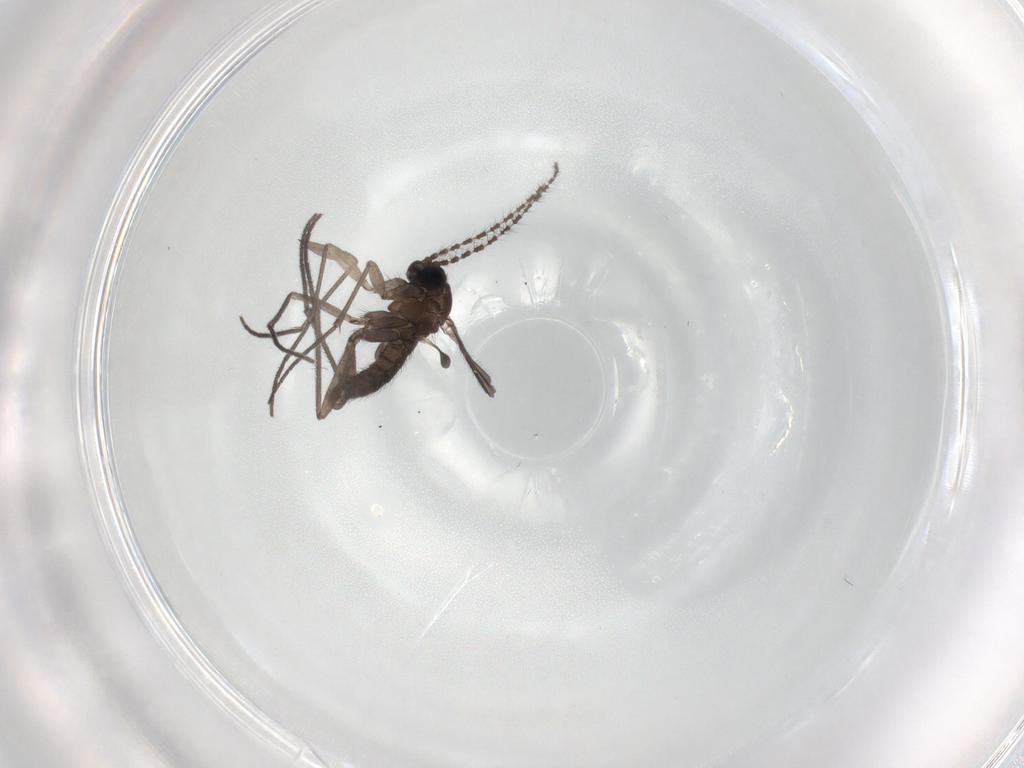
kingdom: Animalia
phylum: Arthropoda
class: Insecta
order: Diptera
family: Sciaridae
